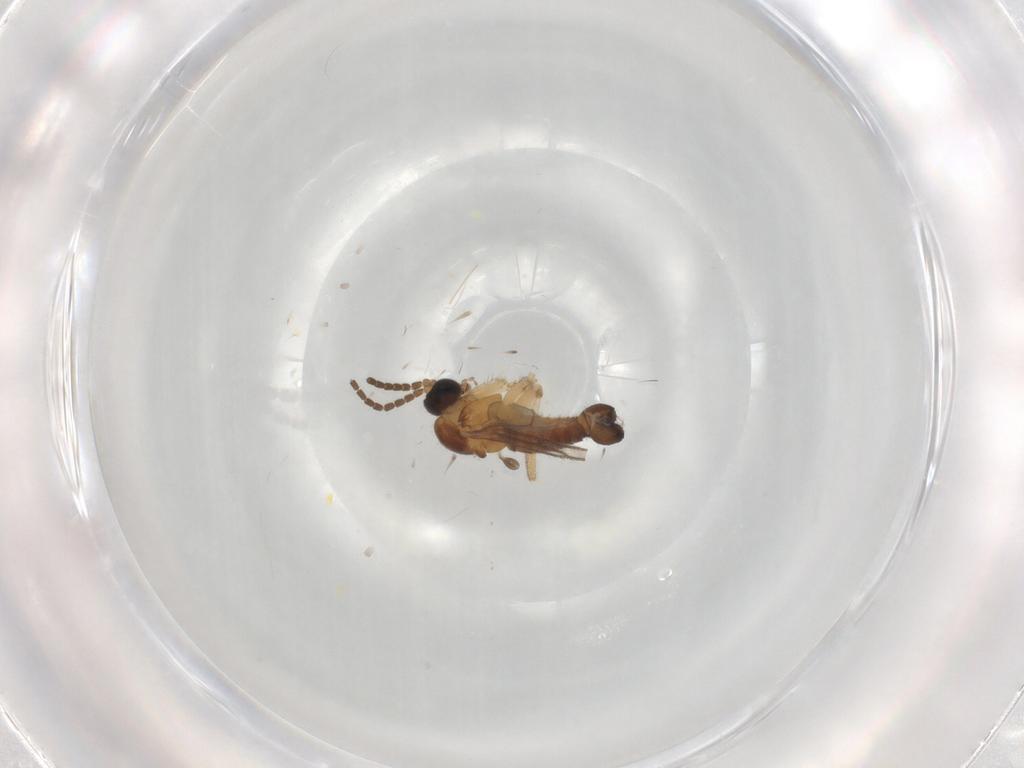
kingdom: Animalia
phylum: Arthropoda
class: Insecta
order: Diptera
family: Sciaridae
